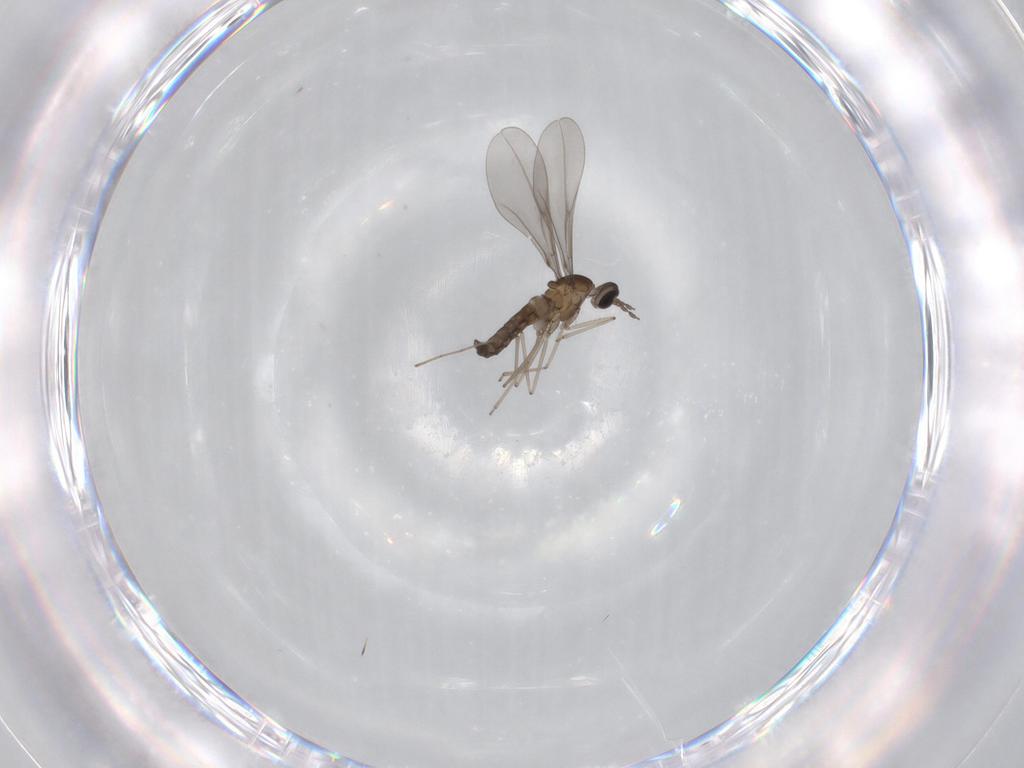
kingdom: Animalia
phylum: Arthropoda
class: Insecta
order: Diptera
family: Cecidomyiidae
